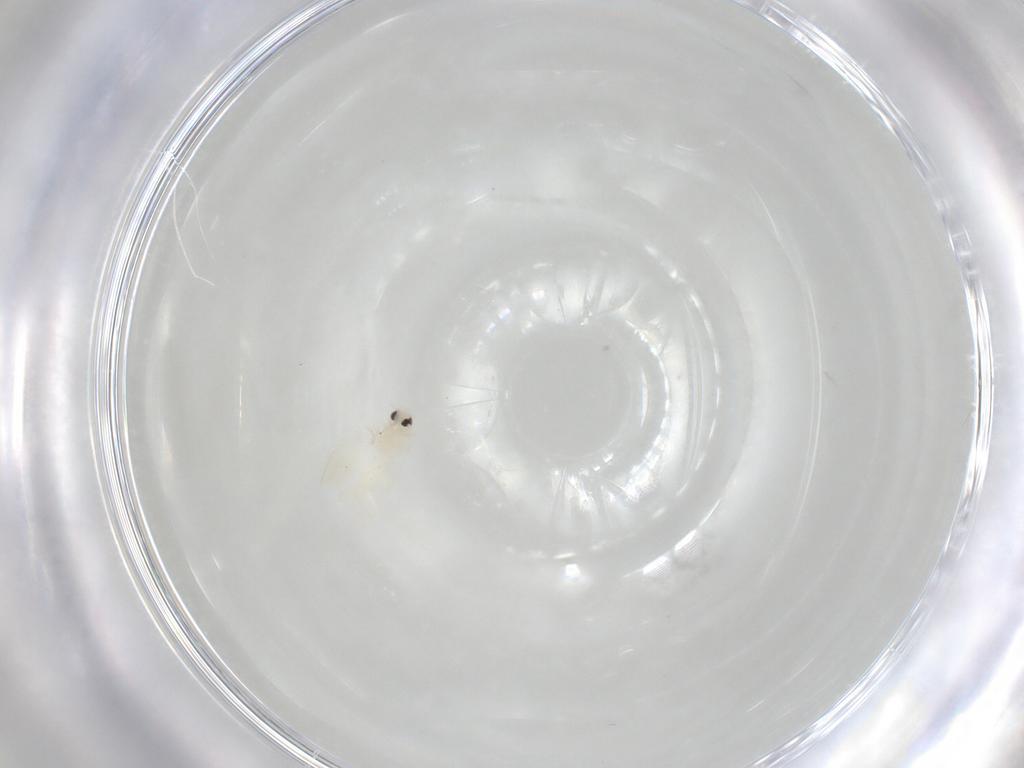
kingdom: Animalia
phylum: Arthropoda
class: Insecta
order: Hemiptera
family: Aleyrodidae
